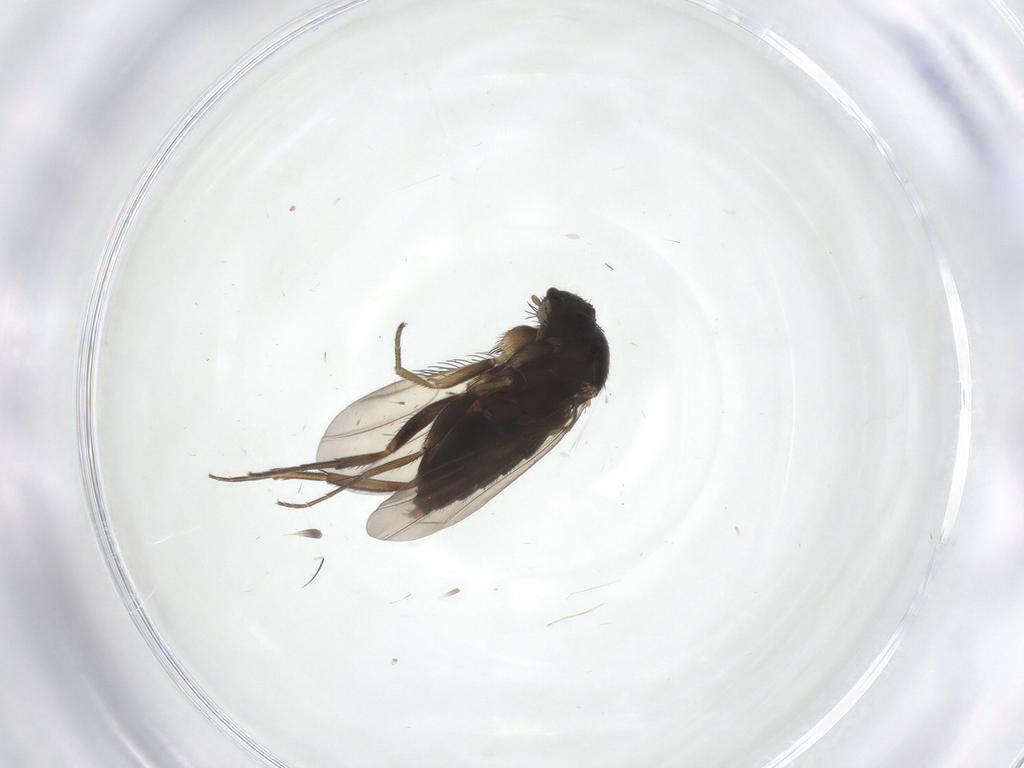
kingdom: Animalia
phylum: Arthropoda
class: Insecta
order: Diptera
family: Phoridae
